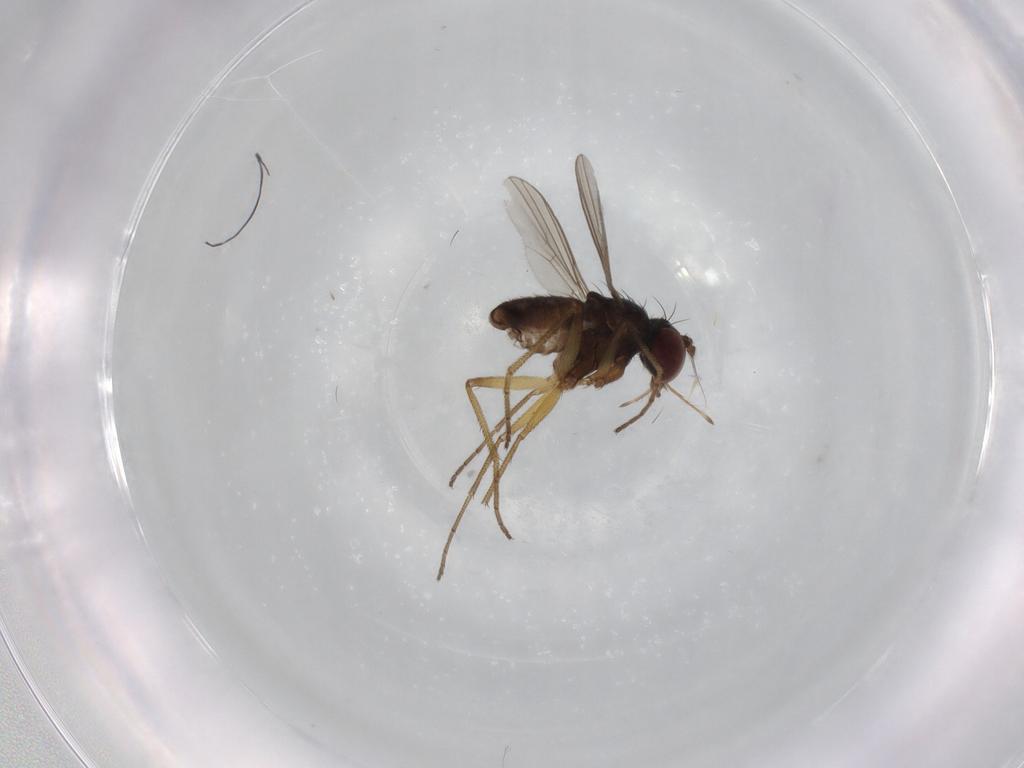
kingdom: Animalia
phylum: Arthropoda
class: Insecta
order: Diptera
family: Dolichopodidae
